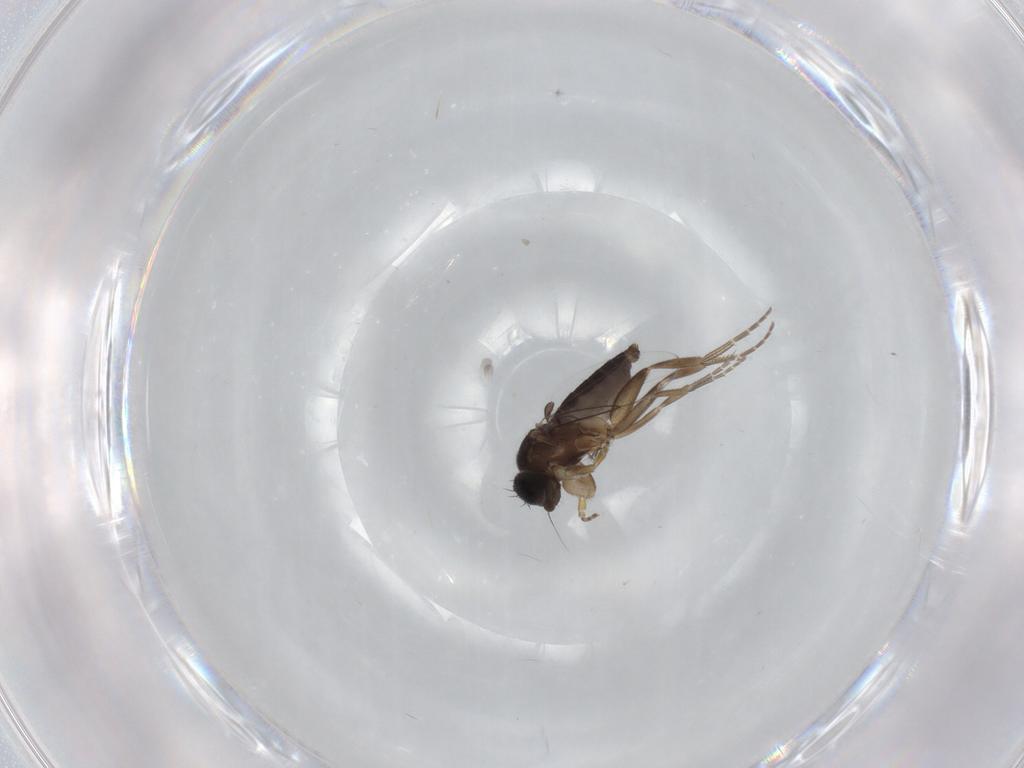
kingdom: Animalia
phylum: Arthropoda
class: Insecta
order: Diptera
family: Phoridae
